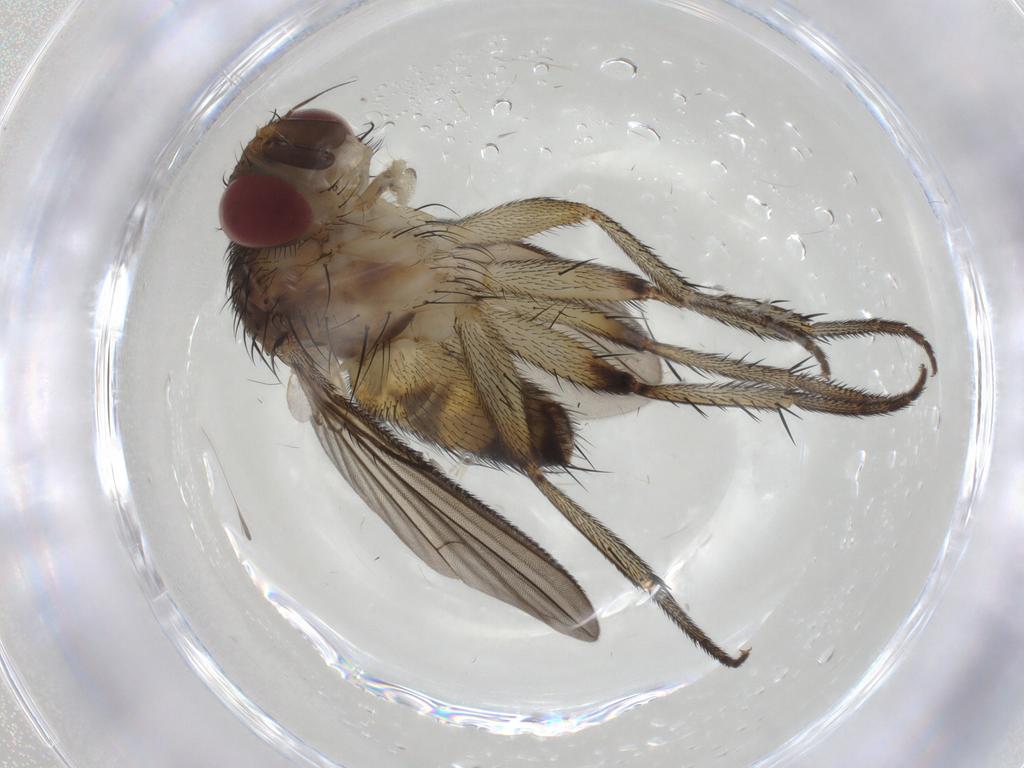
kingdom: Animalia
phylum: Arthropoda
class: Insecta
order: Diptera
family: Tachinidae
